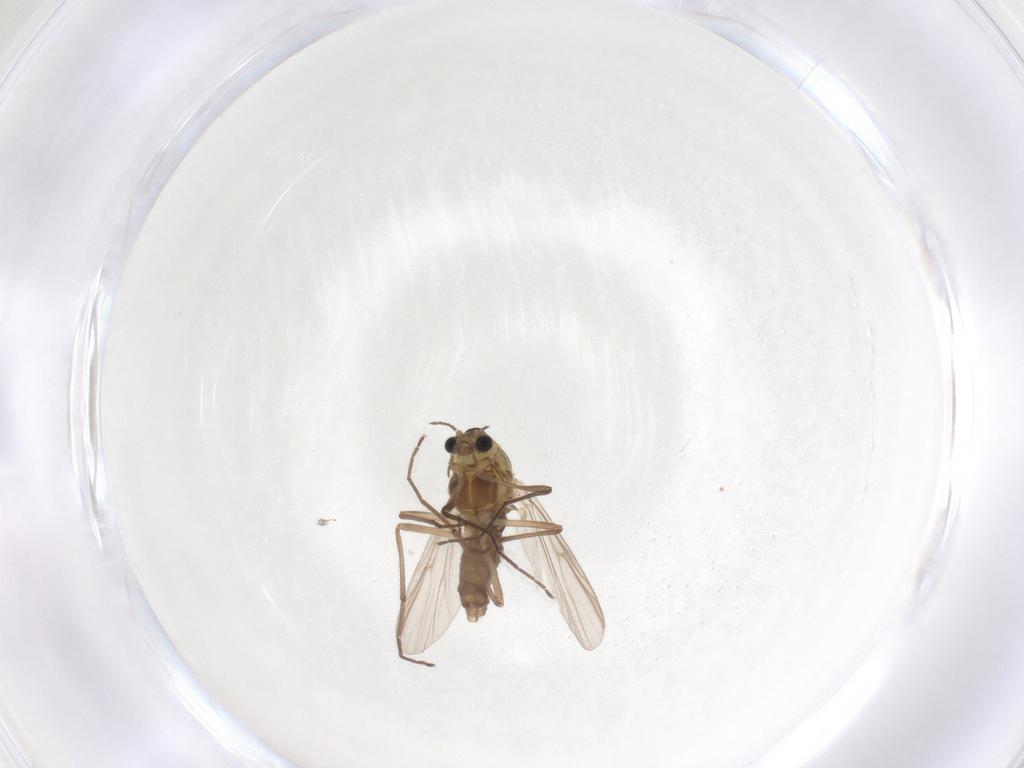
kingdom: Animalia
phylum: Arthropoda
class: Insecta
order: Diptera
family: Chironomidae
